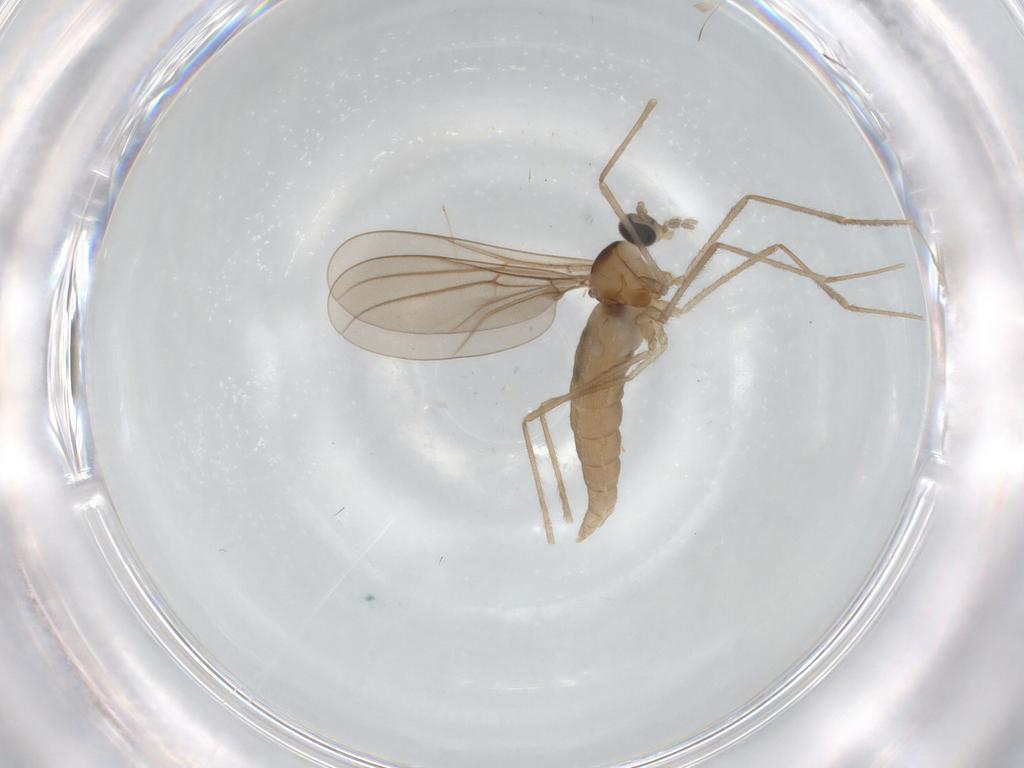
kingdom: Animalia
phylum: Arthropoda
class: Insecta
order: Diptera
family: Cecidomyiidae
